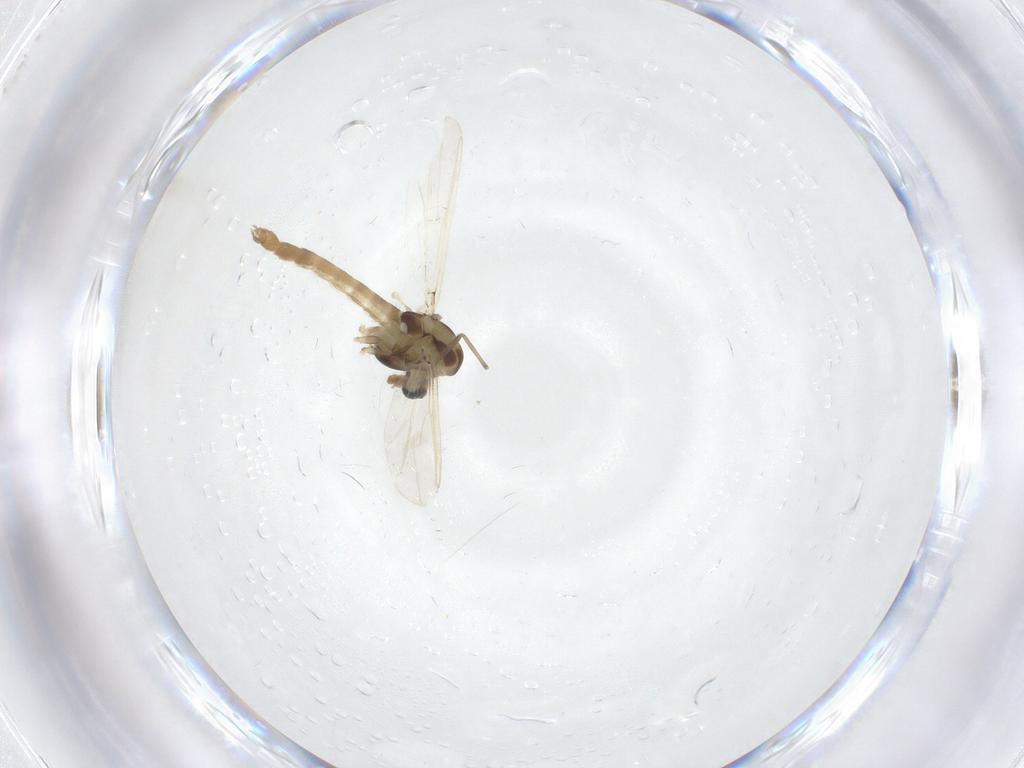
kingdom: Animalia
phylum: Arthropoda
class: Insecta
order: Diptera
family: Chironomidae
